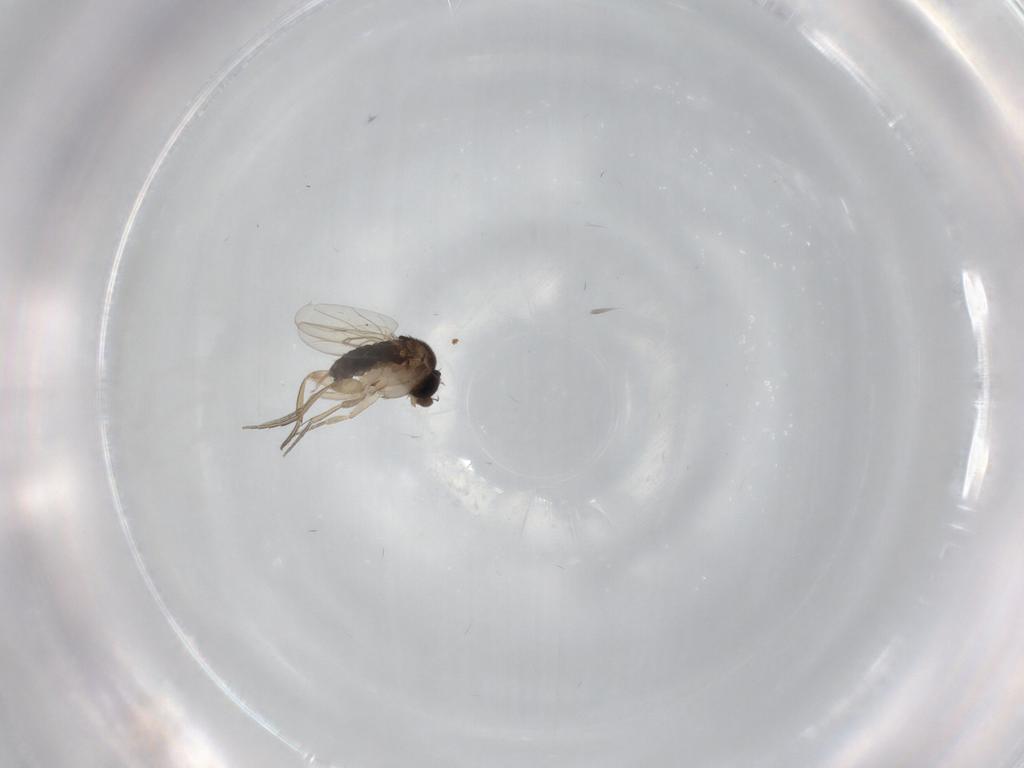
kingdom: Animalia
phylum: Arthropoda
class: Insecta
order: Diptera
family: Phoridae
